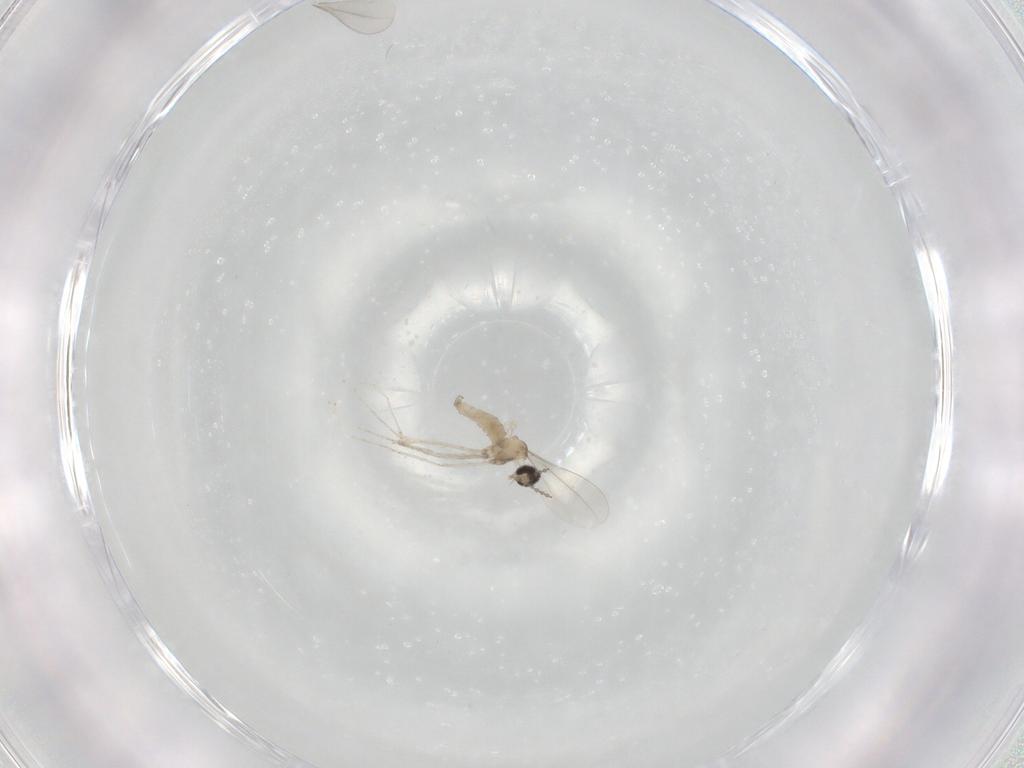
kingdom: Animalia
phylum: Arthropoda
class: Insecta
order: Diptera
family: Cecidomyiidae
